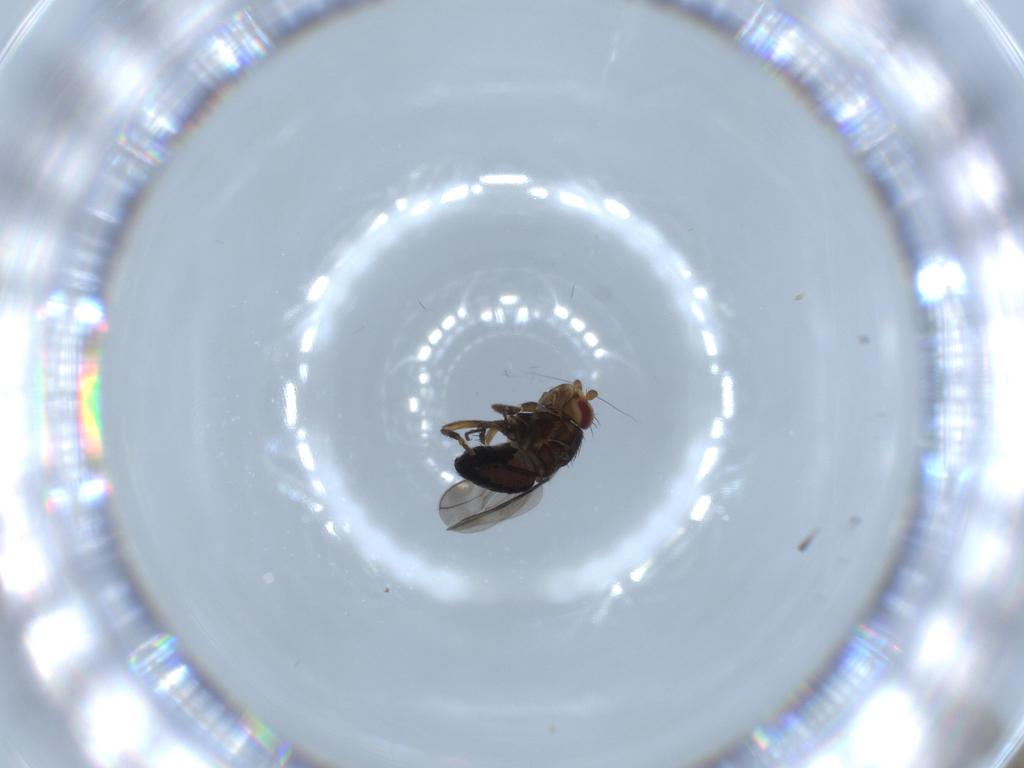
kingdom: Animalia
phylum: Arthropoda
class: Insecta
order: Diptera
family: Sphaeroceridae
